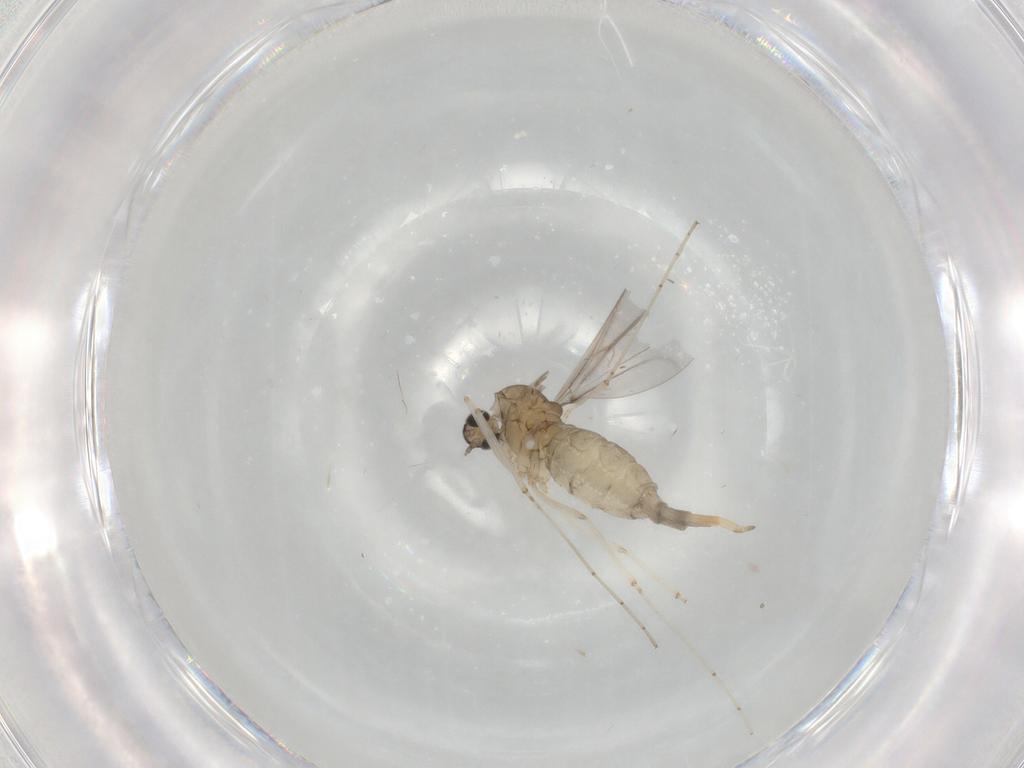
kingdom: Animalia
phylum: Arthropoda
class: Insecta
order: Diptera
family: Cecidomyiidae
